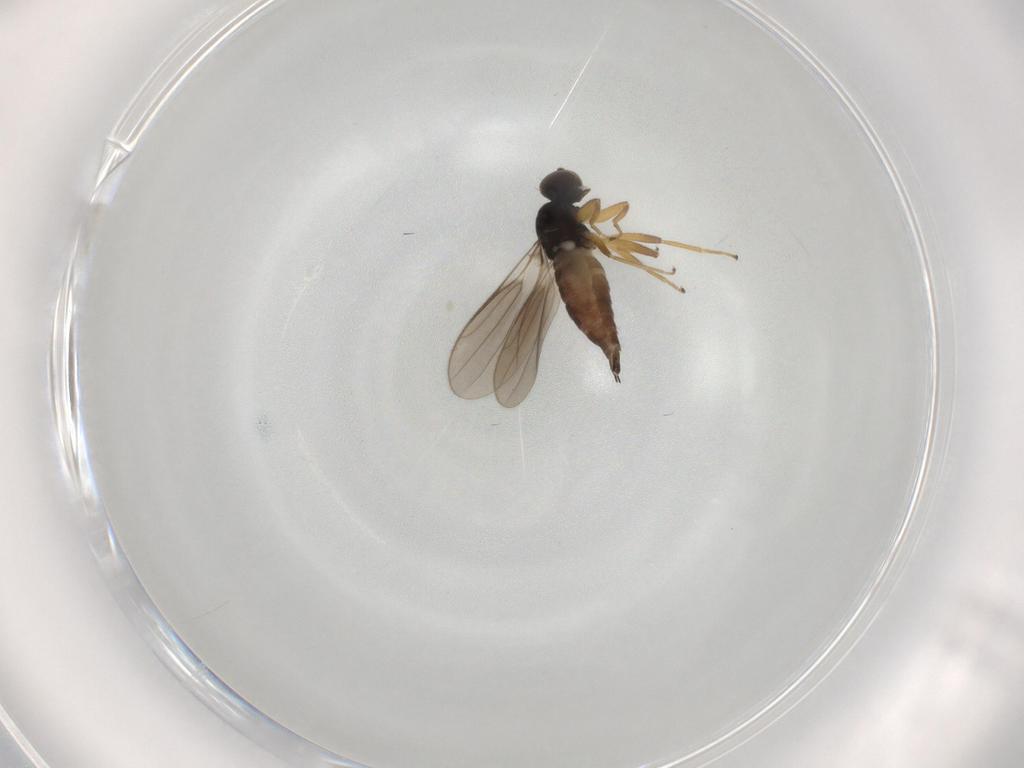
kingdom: Animalia
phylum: Arthropoda
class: Insecta
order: Diptera
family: Hybotidae
